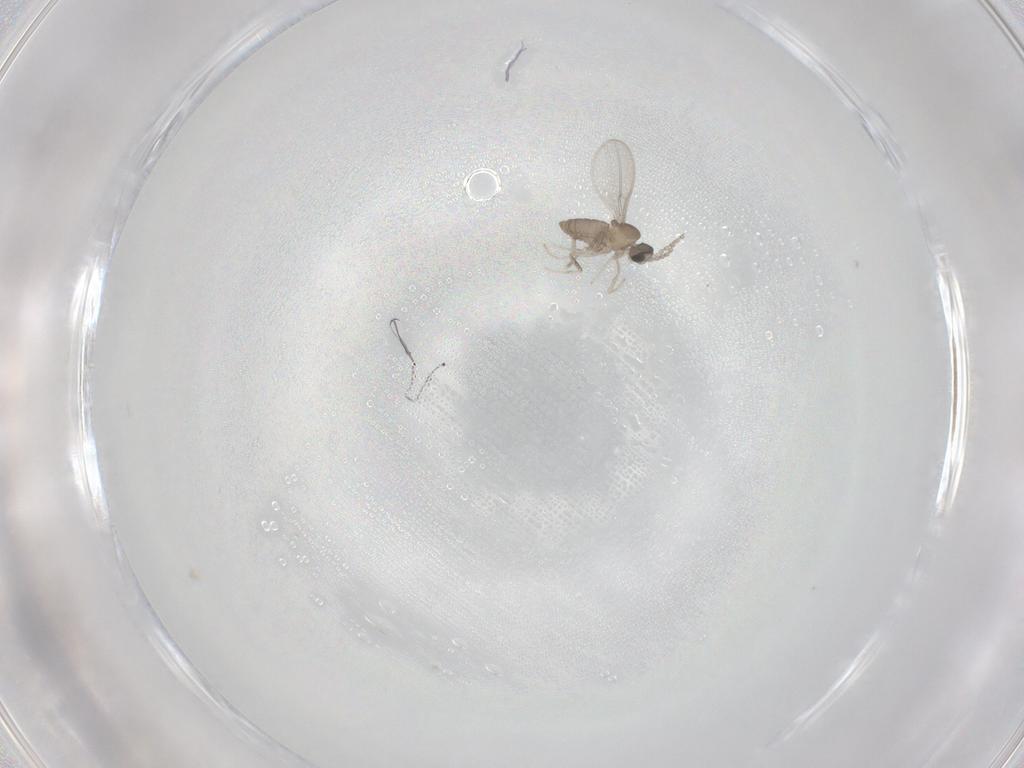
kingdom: Animalia
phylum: Arthropoda
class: Insecta
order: Diptera
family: Cecidomyiidae
